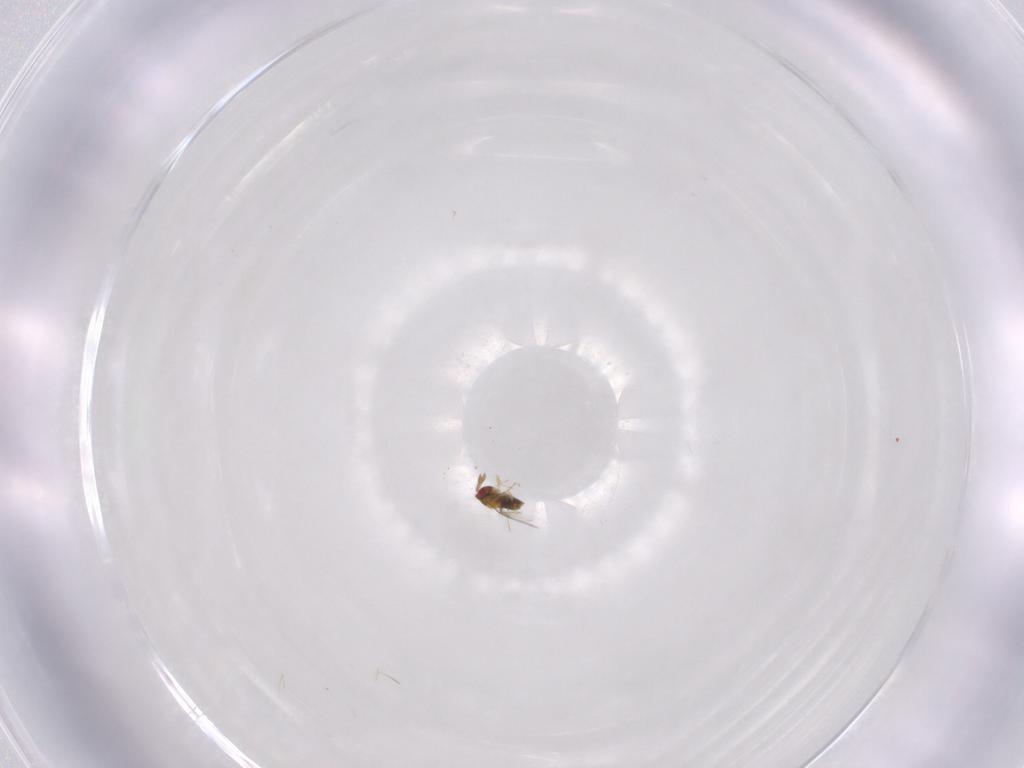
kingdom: Animalia
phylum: Arthropoda
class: Insecta
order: Hymenoptera
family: Trichogrammatidae
